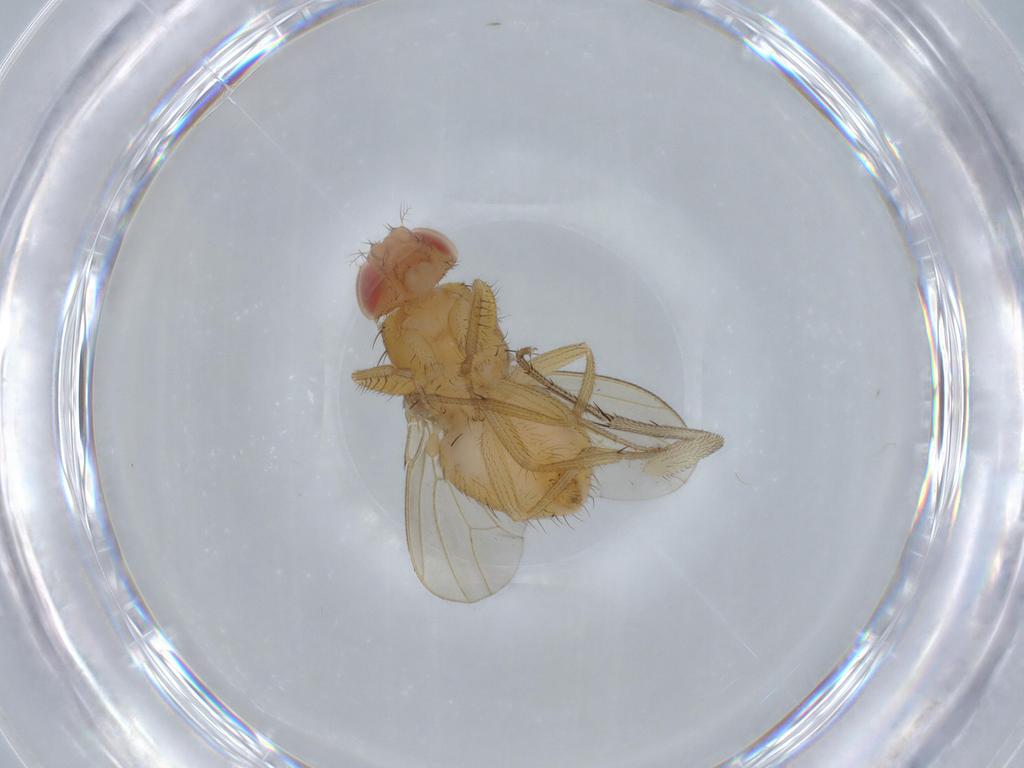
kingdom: Animalia
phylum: Arthropoda
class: Insecta
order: Diptera
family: Drosophilidae
